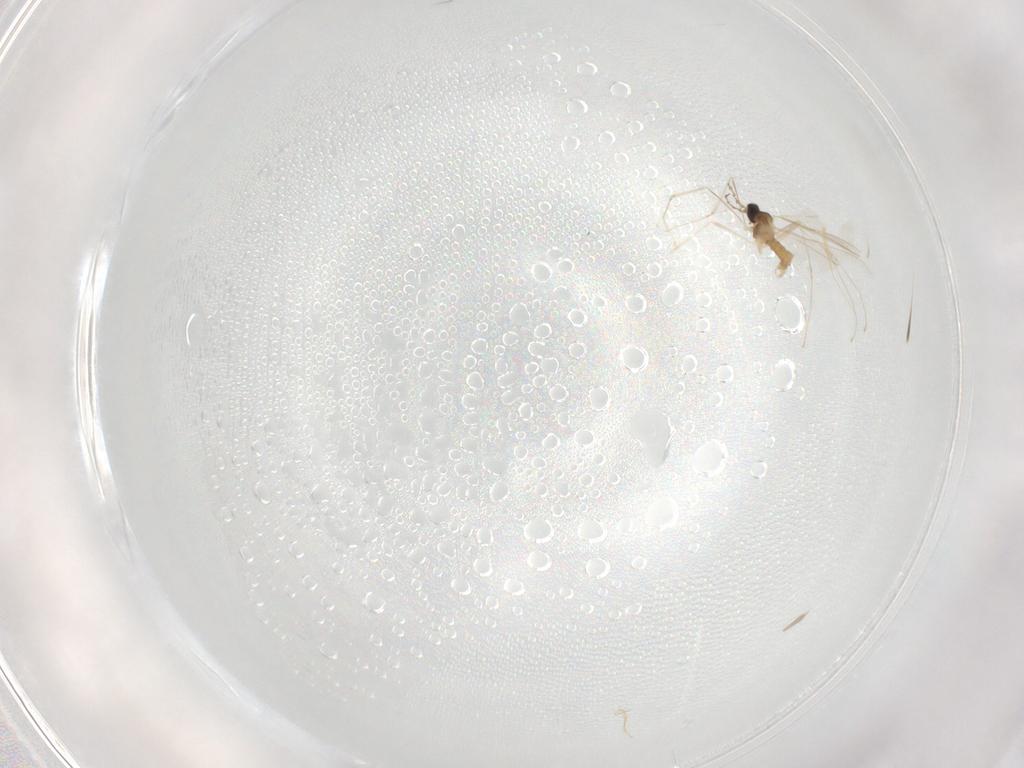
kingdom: Animalia
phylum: Arthropoda
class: Insecta
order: Diptera
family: Cecidomyiidae
